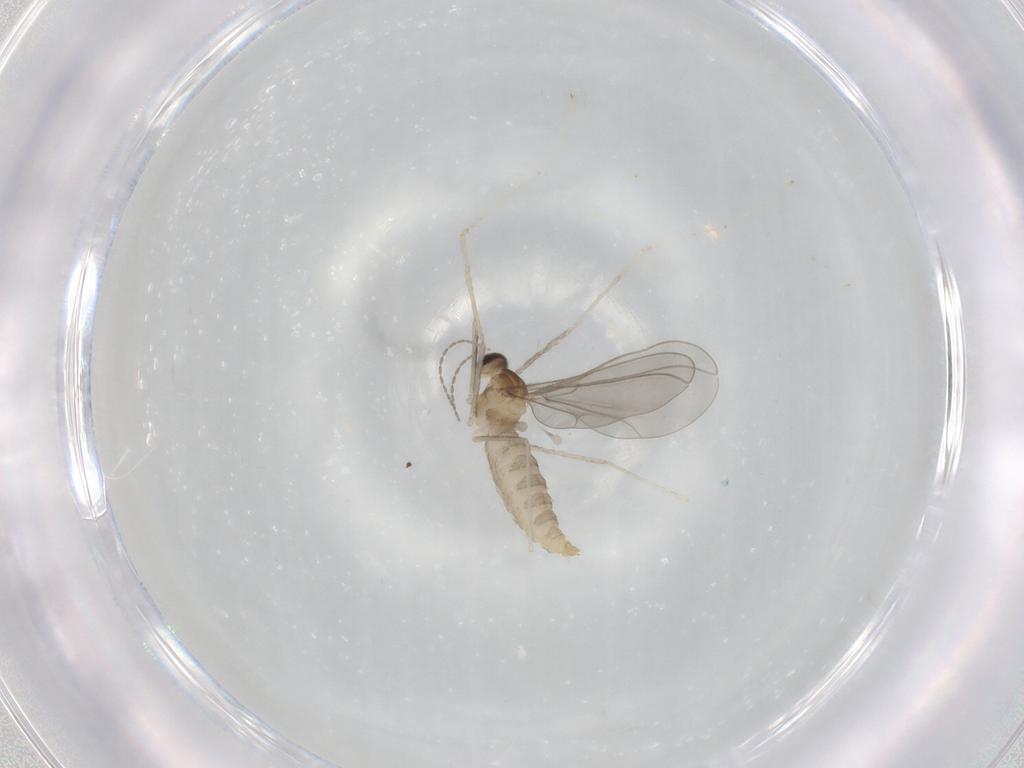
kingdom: Animalia
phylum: Arthropoda
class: Insecta
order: Diptera
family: Cecidomyiidae
